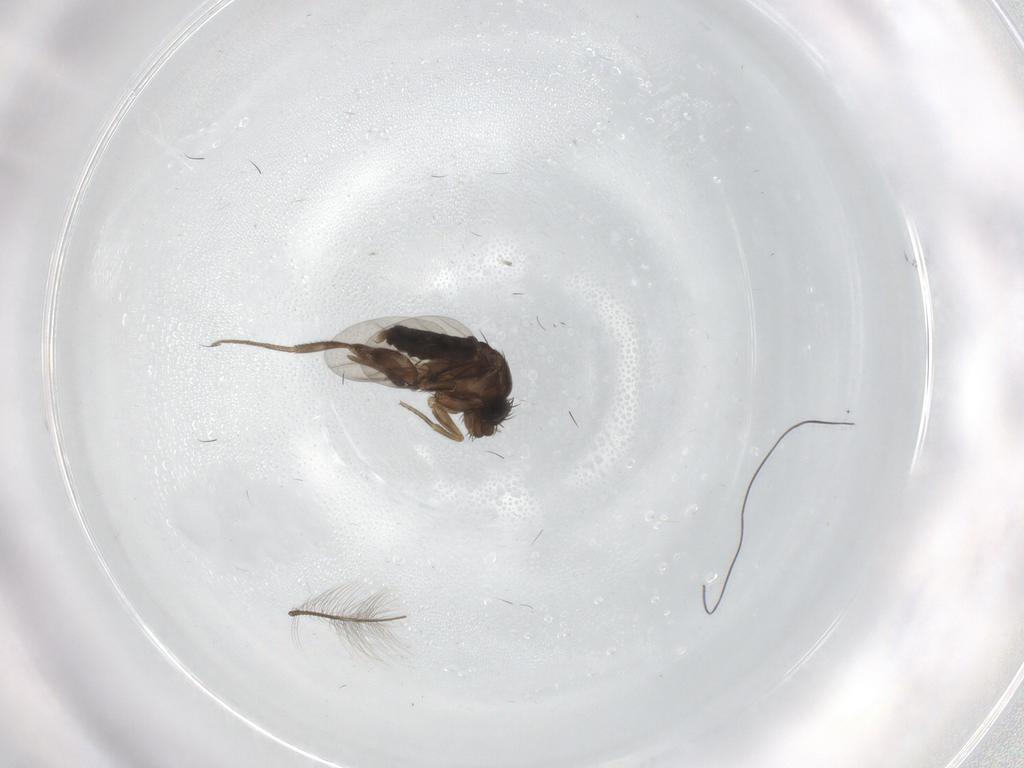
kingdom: Animalia
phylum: Arthropoda
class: Insecta
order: Diptera
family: Phoridae
